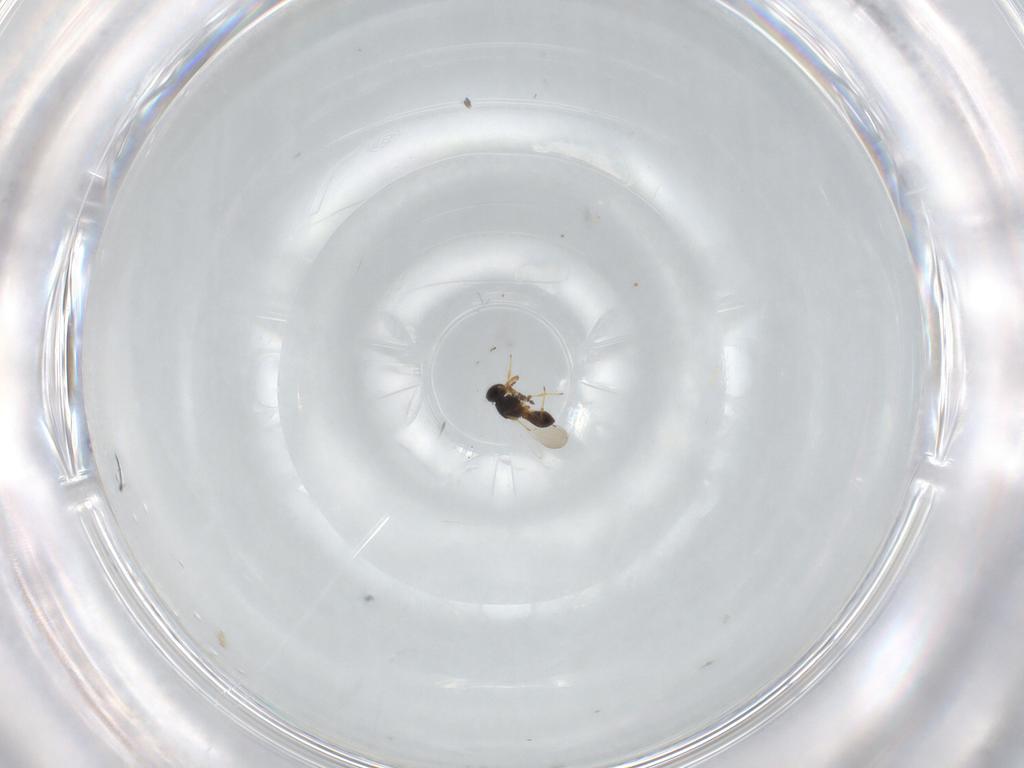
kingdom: Animalia
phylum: Arthropoda
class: Insecta
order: Hymenoptera
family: Platygastridae
